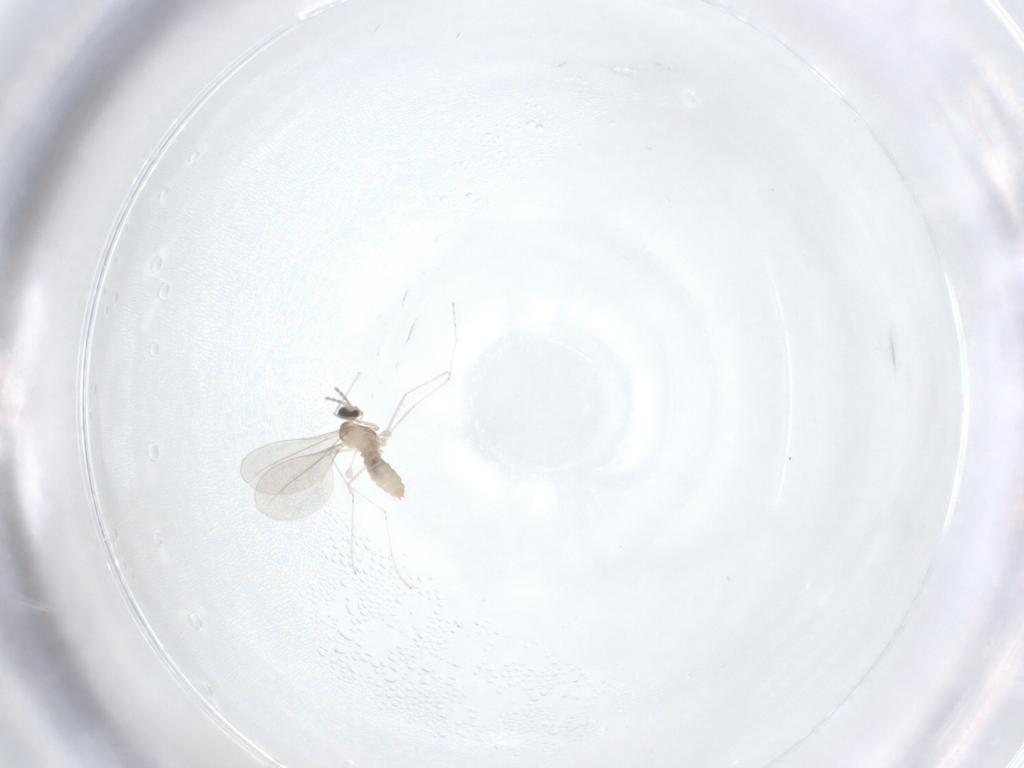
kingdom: Animalia
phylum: Arthropoda
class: Insecta
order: Diptera
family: Cecidomyiidae
